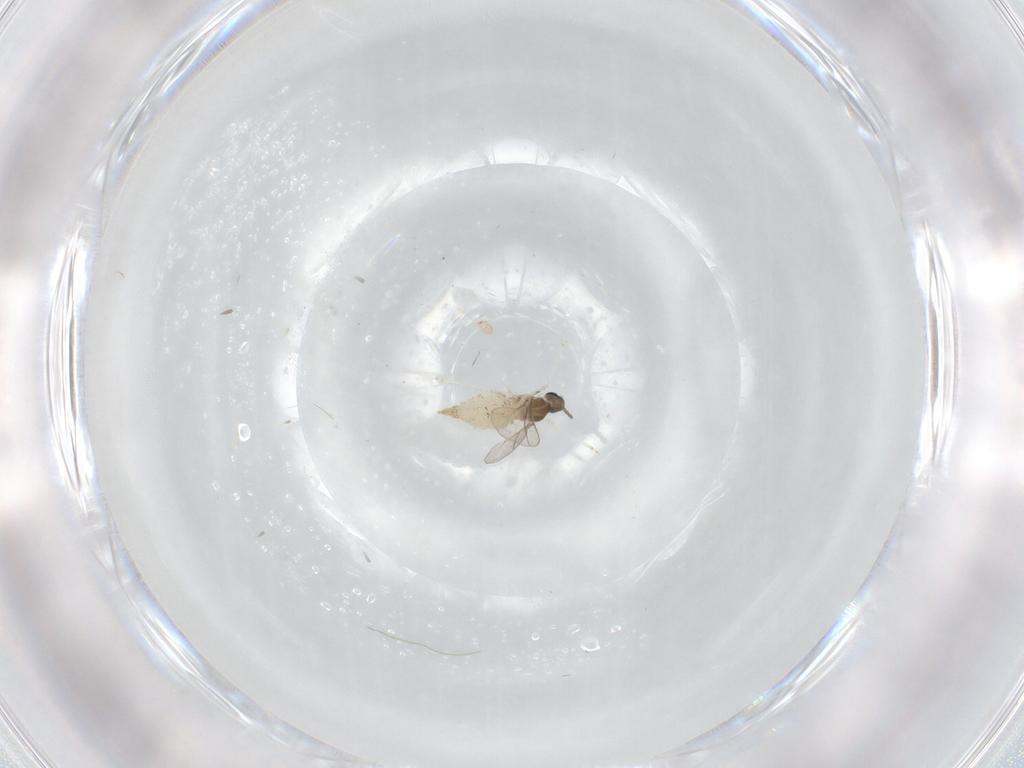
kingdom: Animalia
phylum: Arthropoda
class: Insecta
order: Diptera
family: Cecidomyiidae
